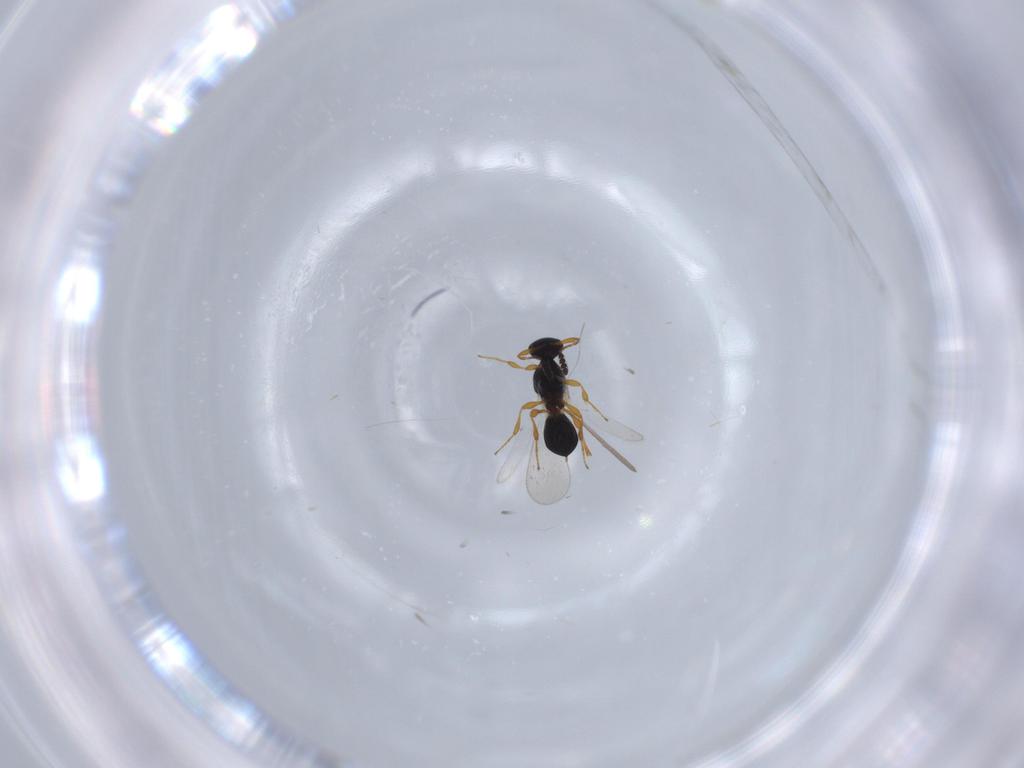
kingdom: Animalia
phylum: Arthropoda
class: Insecta
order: Hymenoptera
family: Platygastridae
